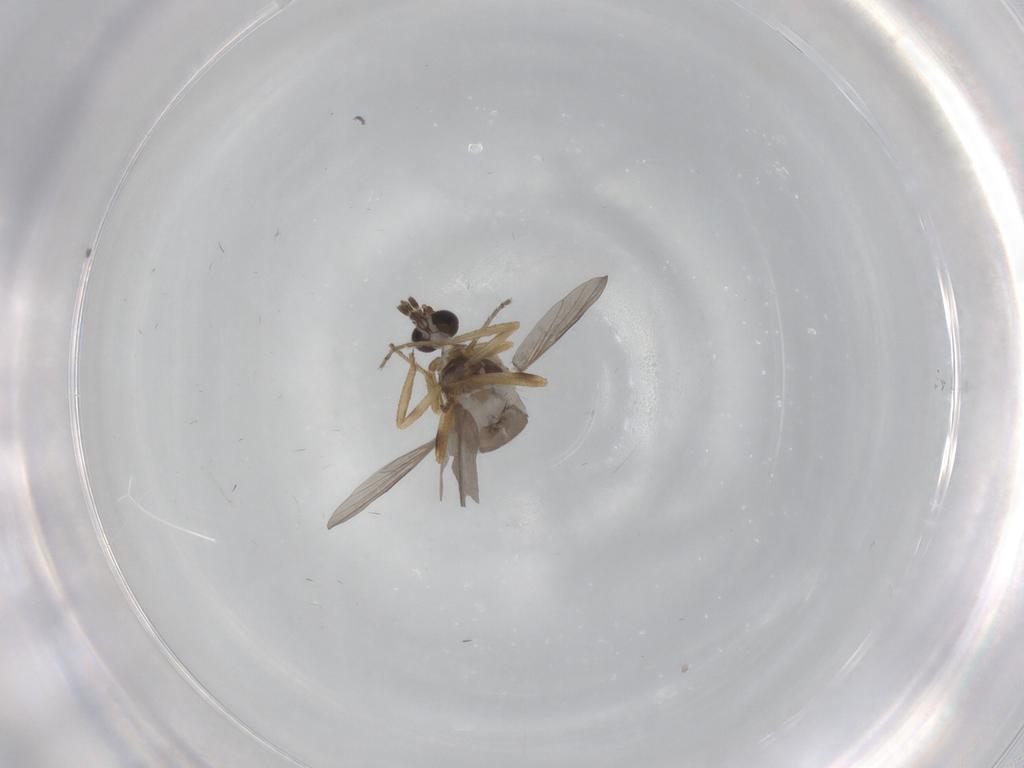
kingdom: Animalia
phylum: Arthropoda
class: Insecta
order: Diptera
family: Ceratopogonidae
